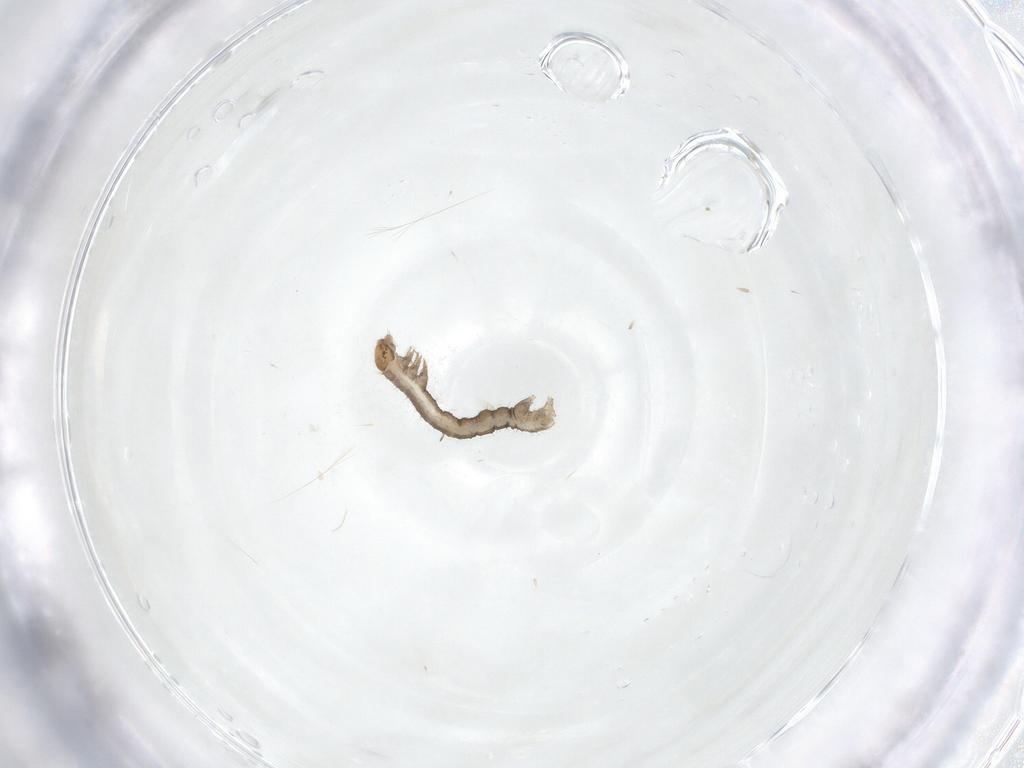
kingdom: Animalia
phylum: Arthropoda
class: Insecta
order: Lepidoptera
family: Geometridae
